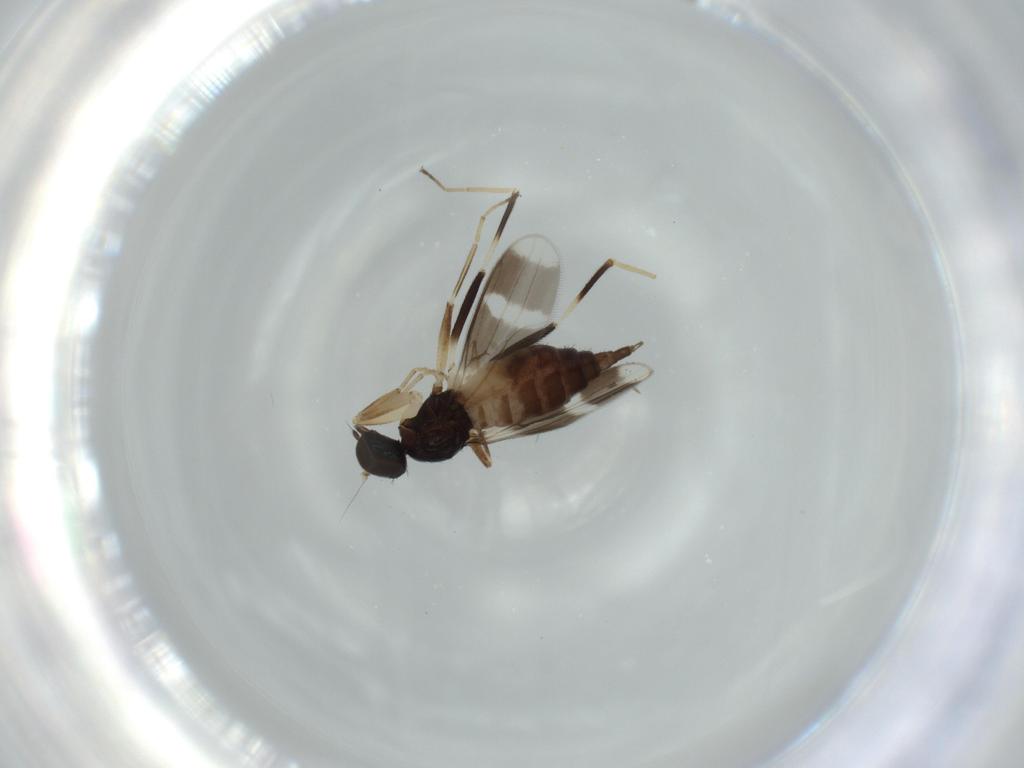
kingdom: Animalia
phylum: Arthropoda
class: Insecta
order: Diptera
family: Hybotidae
